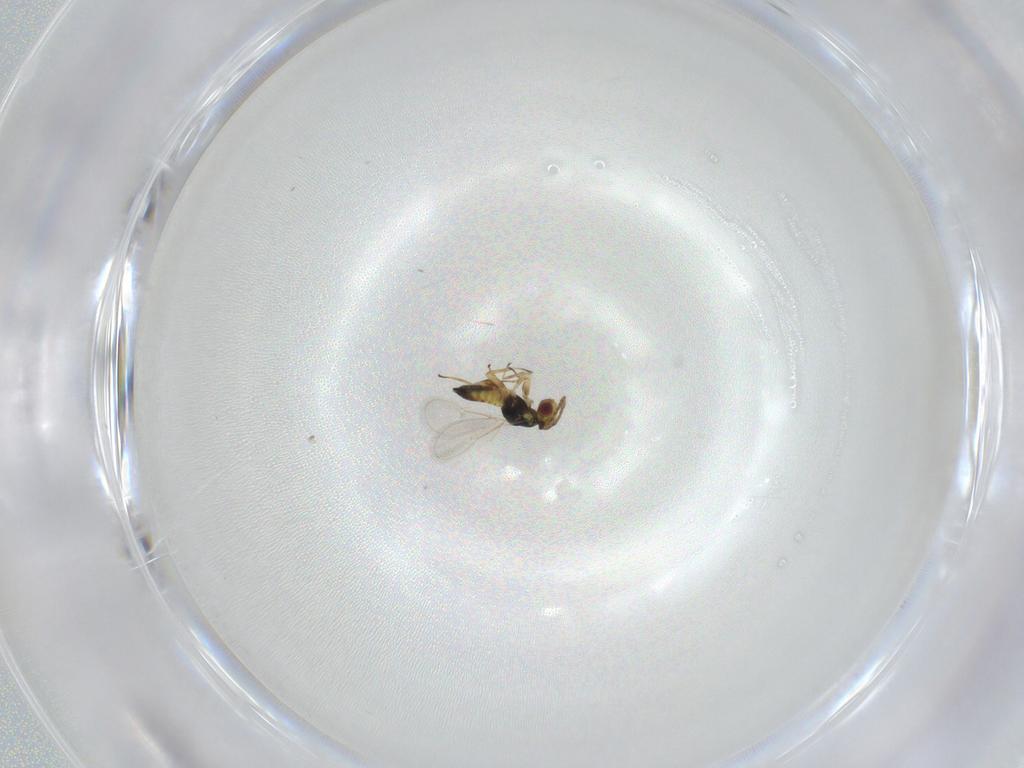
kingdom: Animalia
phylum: Arthropoda
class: Insecta
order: Hymenoptera
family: Eulophidae
